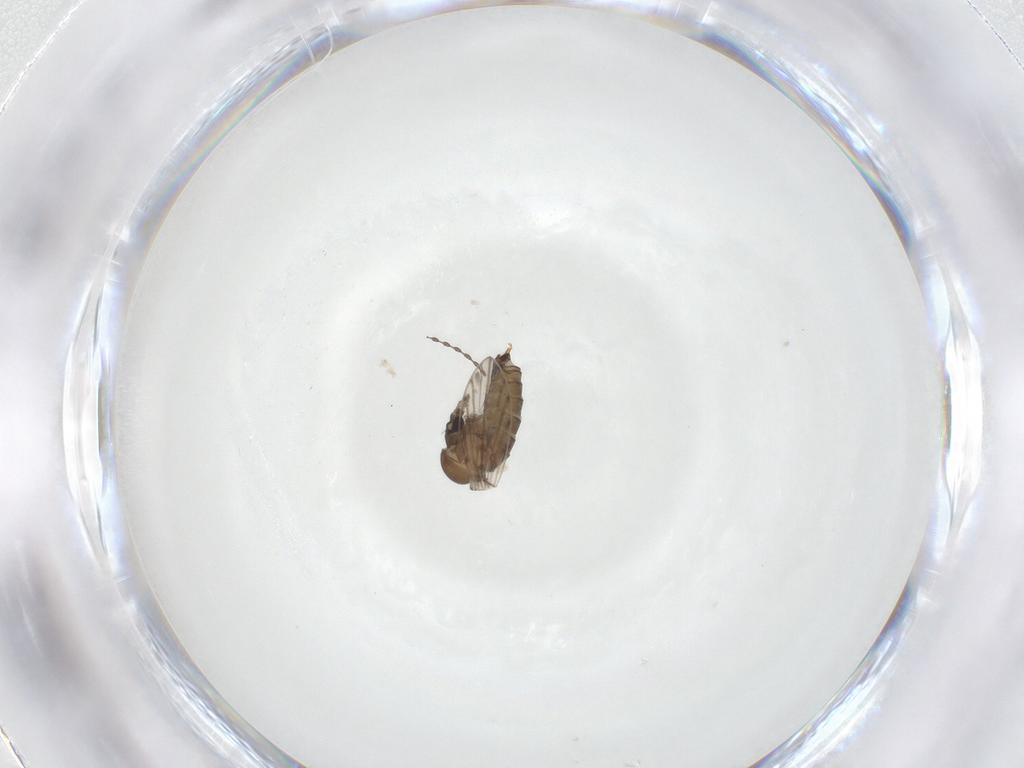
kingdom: Animalia
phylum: Arthropoda
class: Insecta
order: Diptera
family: Psychodidae
